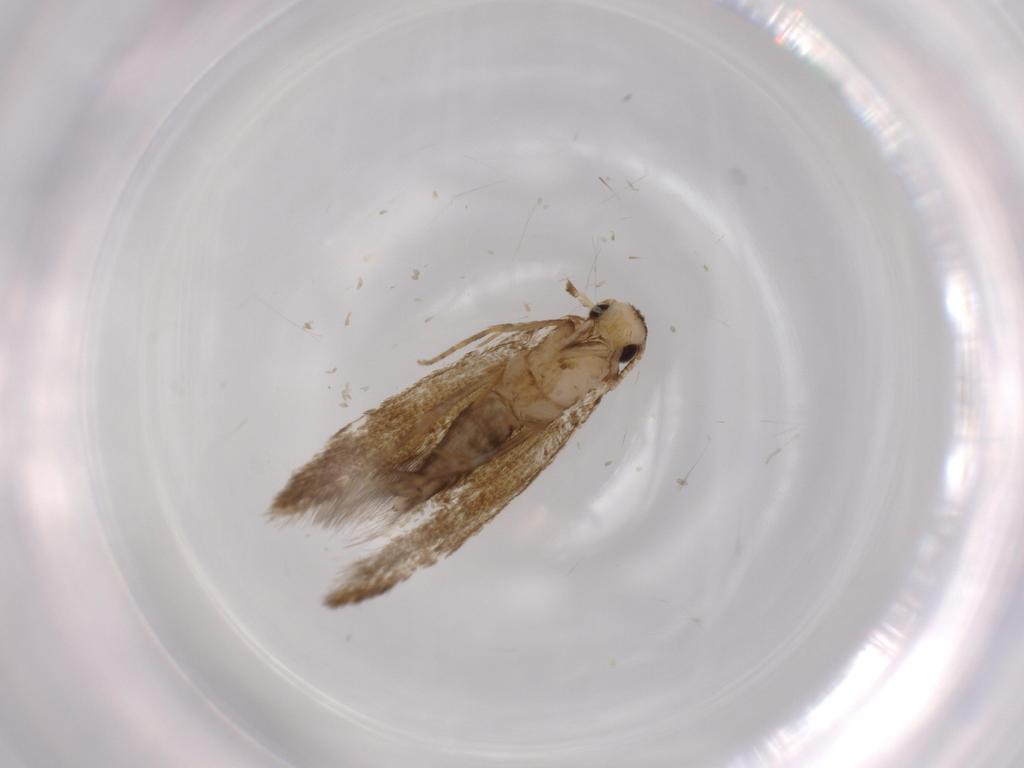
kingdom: Animalia
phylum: Arthropoda
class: Insecta
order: Lepidoptera
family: Tineidae
